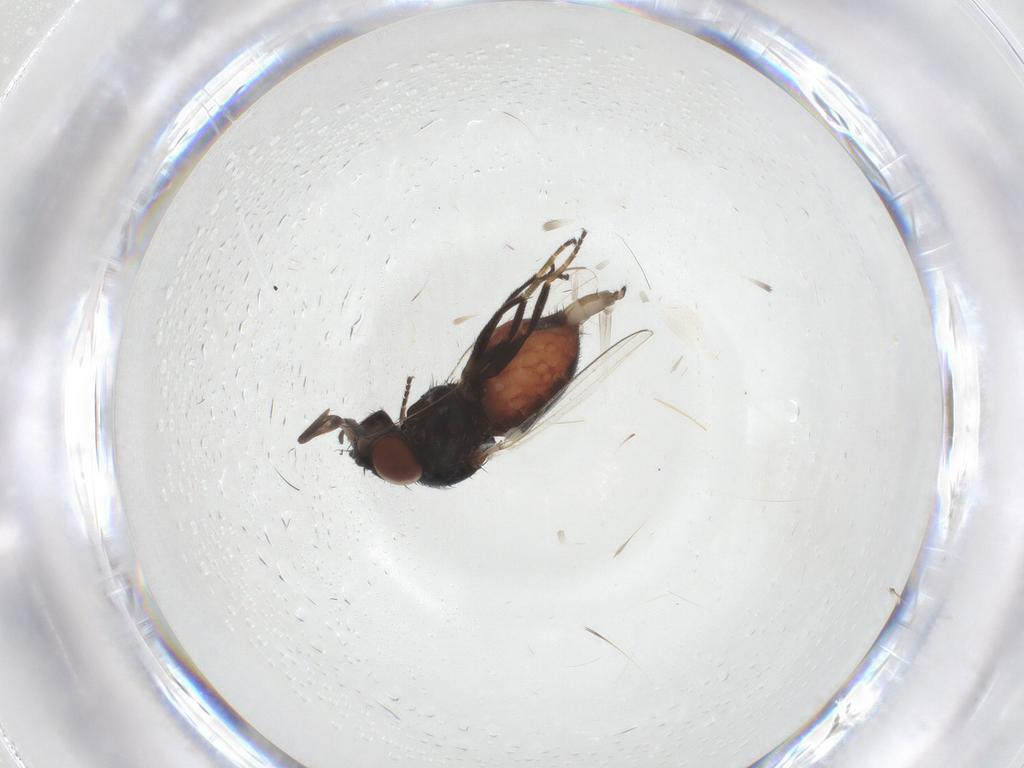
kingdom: Animalia
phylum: Arthropoda
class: Insecta
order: Diptera
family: Milichiidae
